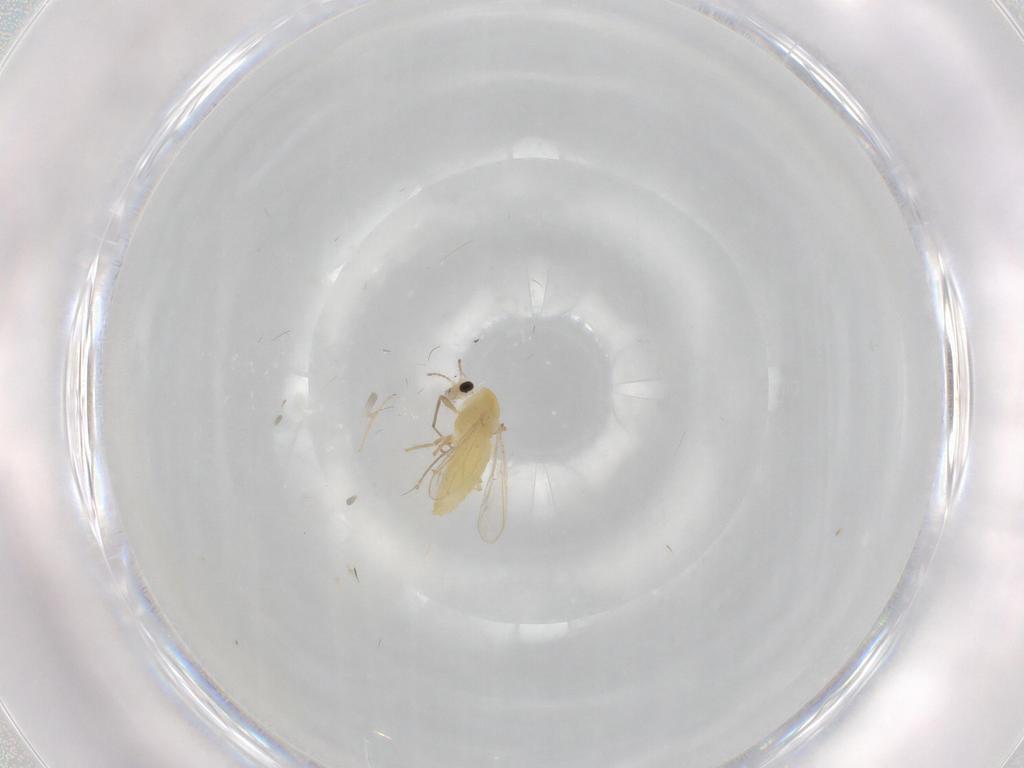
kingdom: Animalia
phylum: Arthropoda
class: Insecta
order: Diptera
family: Chironomidae
